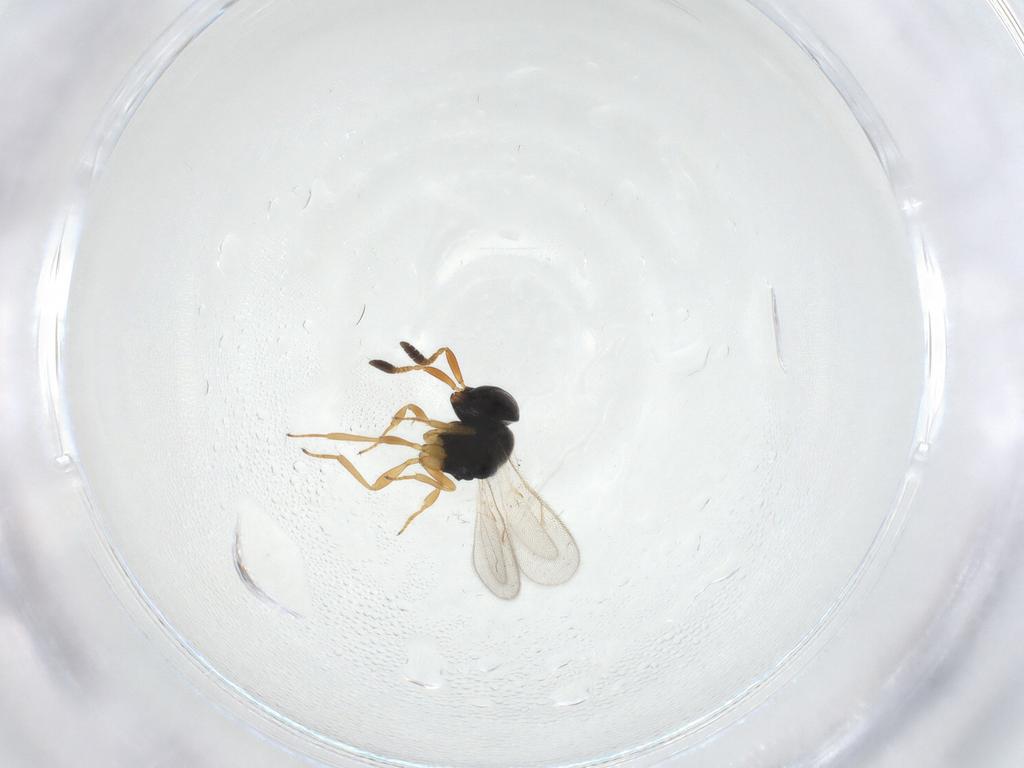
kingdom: Animalia
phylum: Arthropoda
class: Insecta
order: Hymenoptera
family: Scelionidae
